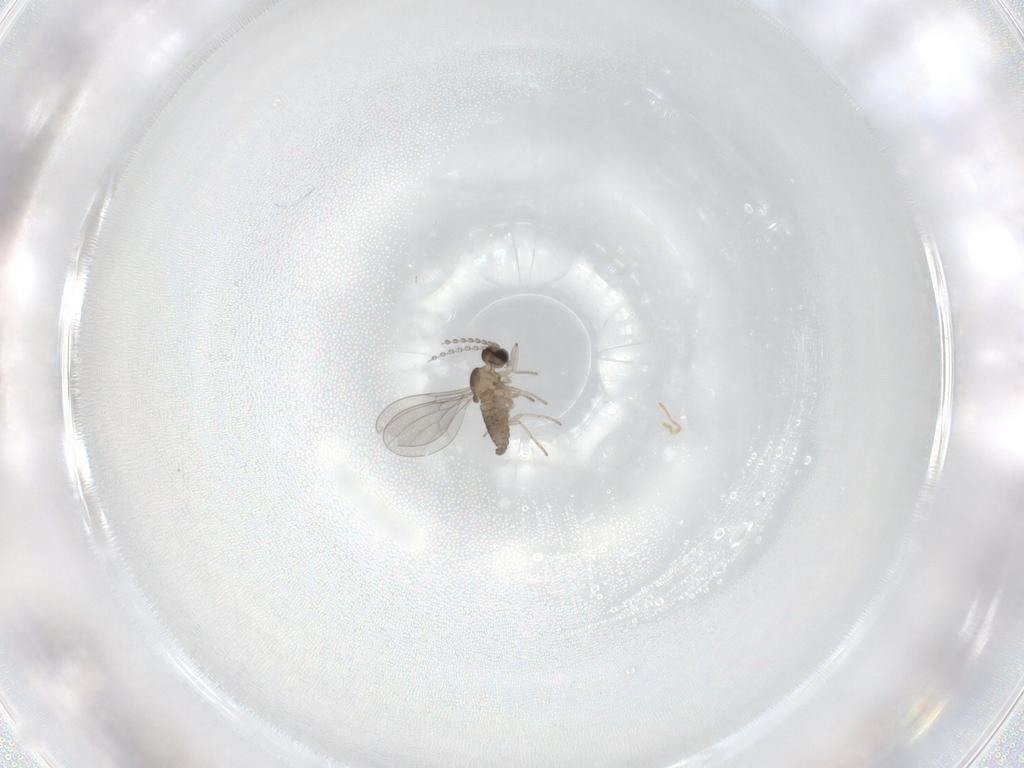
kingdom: Animalia
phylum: Arthropoda
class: Insecta
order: Diptera
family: Cecidomyiidae
